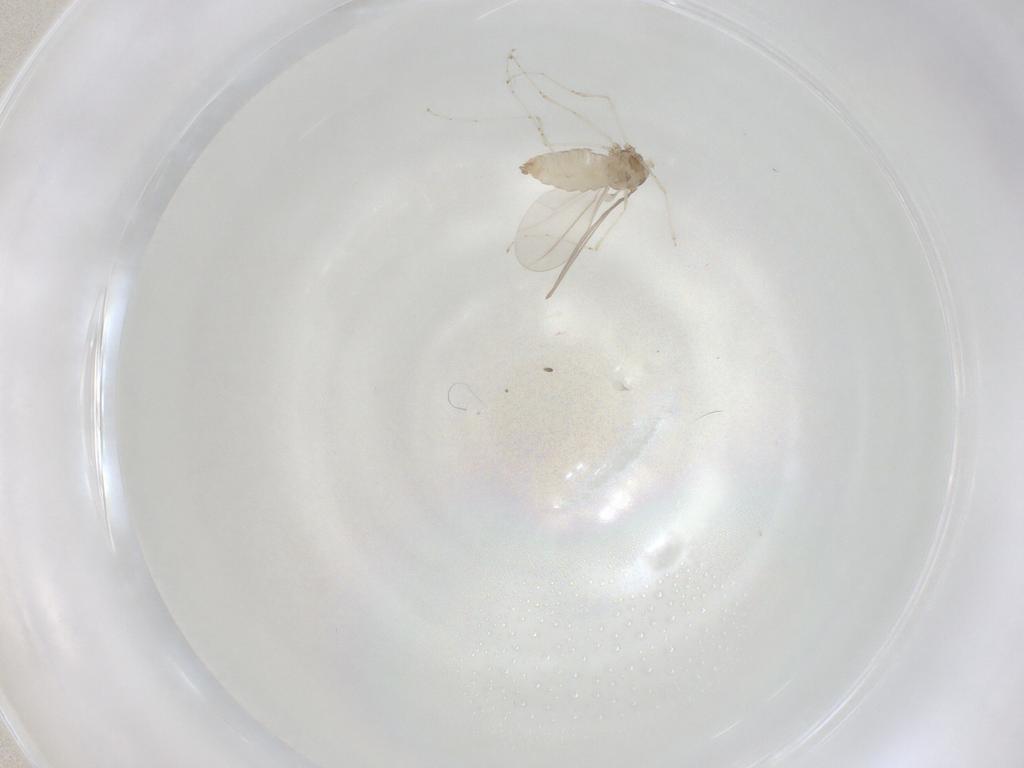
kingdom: Animalia
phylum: Arthropoda
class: Insecta
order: Diptera
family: Cecidomyiidae
